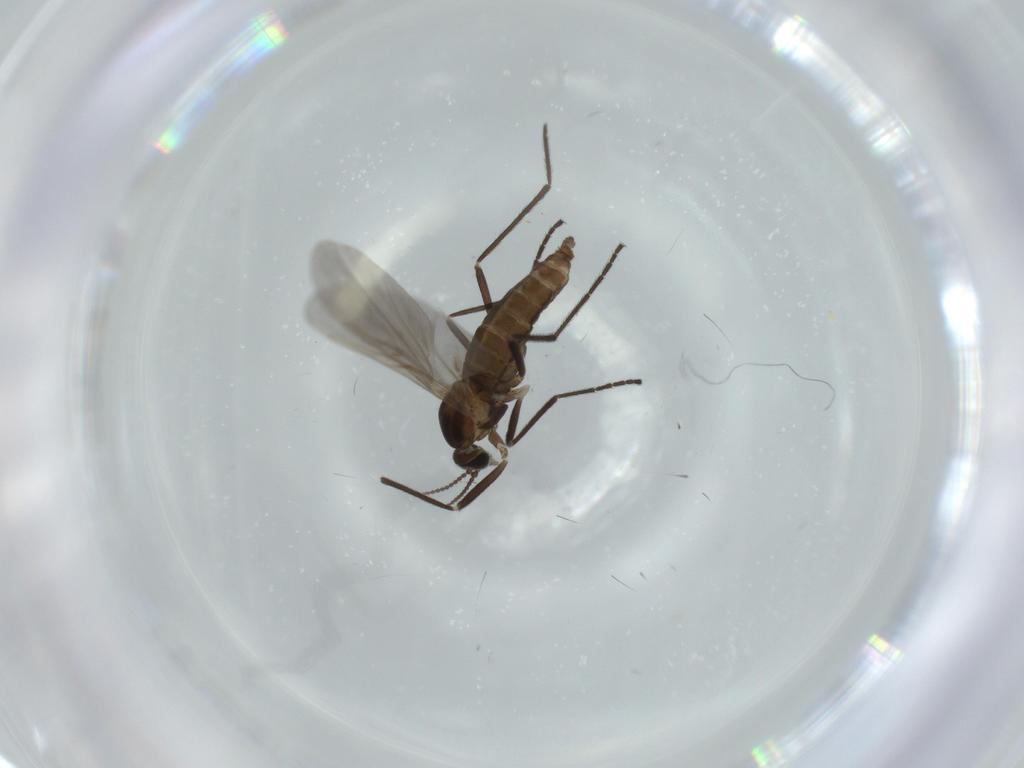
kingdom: Animalia
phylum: Arthropoda
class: Insecta
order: Diptera
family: Cecidomyiidae
